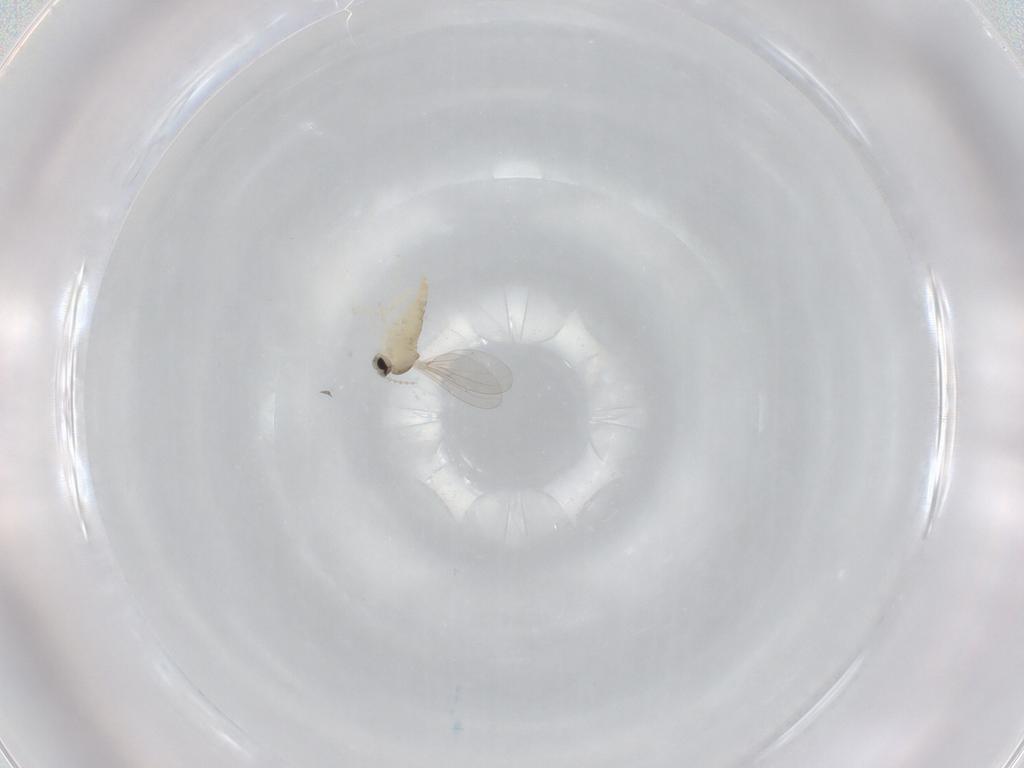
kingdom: Animalia
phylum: Arthropoda
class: Insecta
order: Diptera
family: Cecidomyiidae
